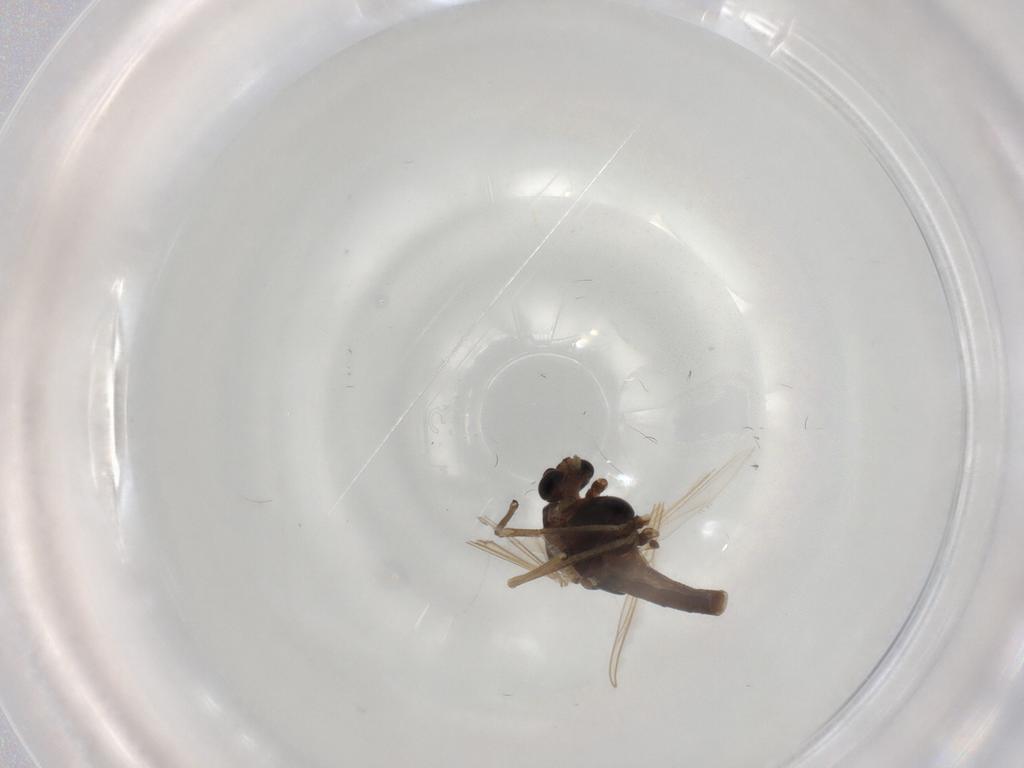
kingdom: Animalia
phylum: Arthropoda
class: Insecta
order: Diptera
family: Chironomidae
